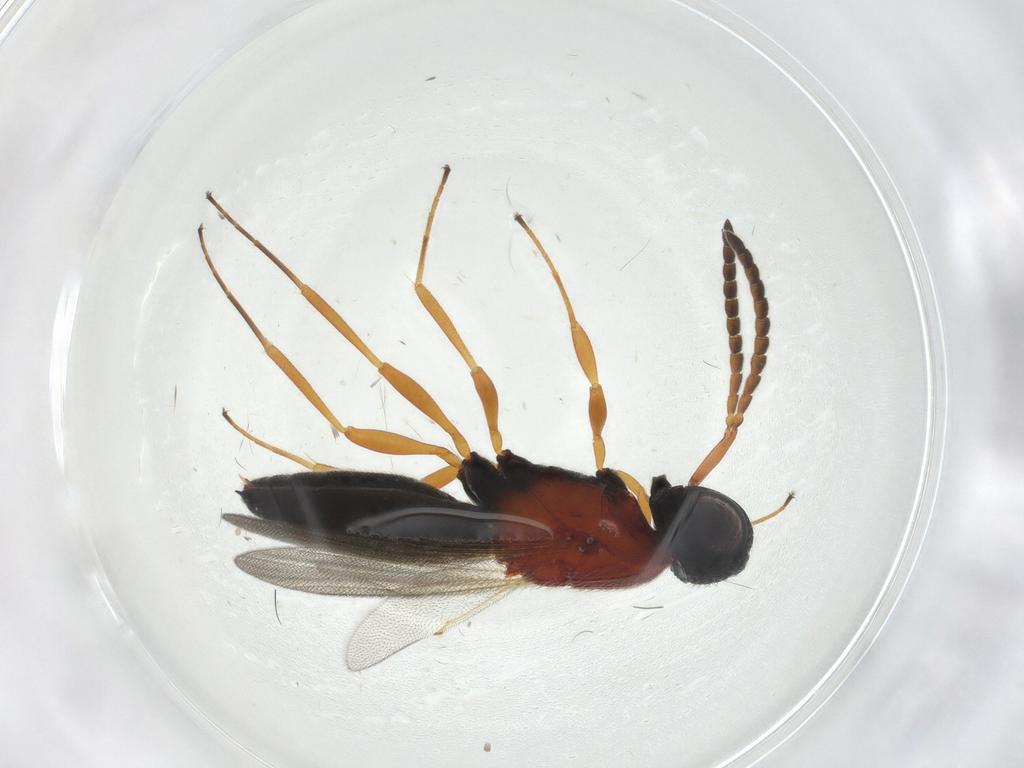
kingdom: Animalia
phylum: Arthropoda
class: Insecta
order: Hymenoptera
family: Scelionidae
